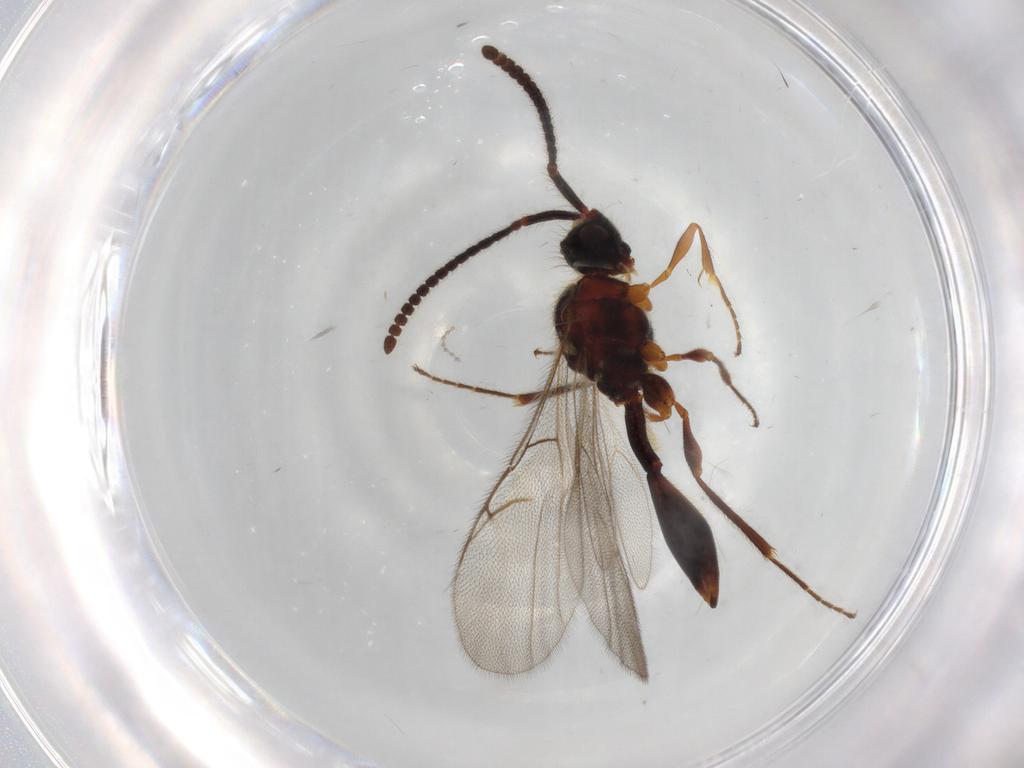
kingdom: Animalia
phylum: Arthropoda
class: Insecta
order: Hymenoptera
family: Diapriidae
